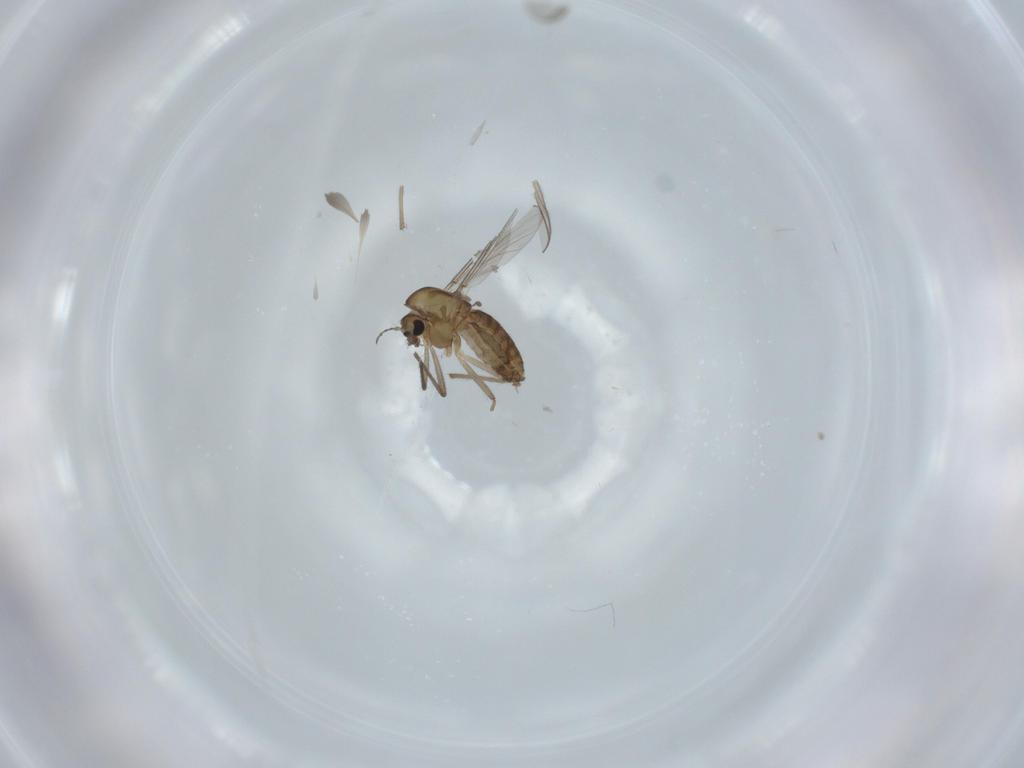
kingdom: Animalia
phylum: Arthropoda
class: Insecta
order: Diptera
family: Chironomidae
